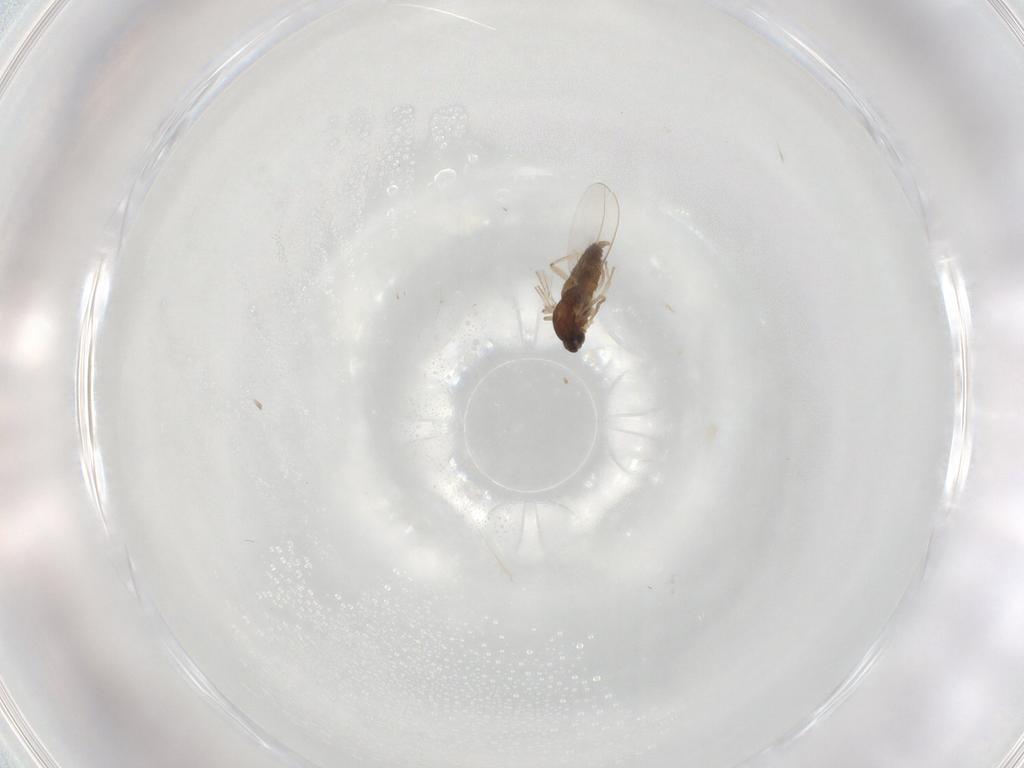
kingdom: Animalia
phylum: Arthropoda
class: Insecta
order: Diptera
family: Cecidomyiidae
